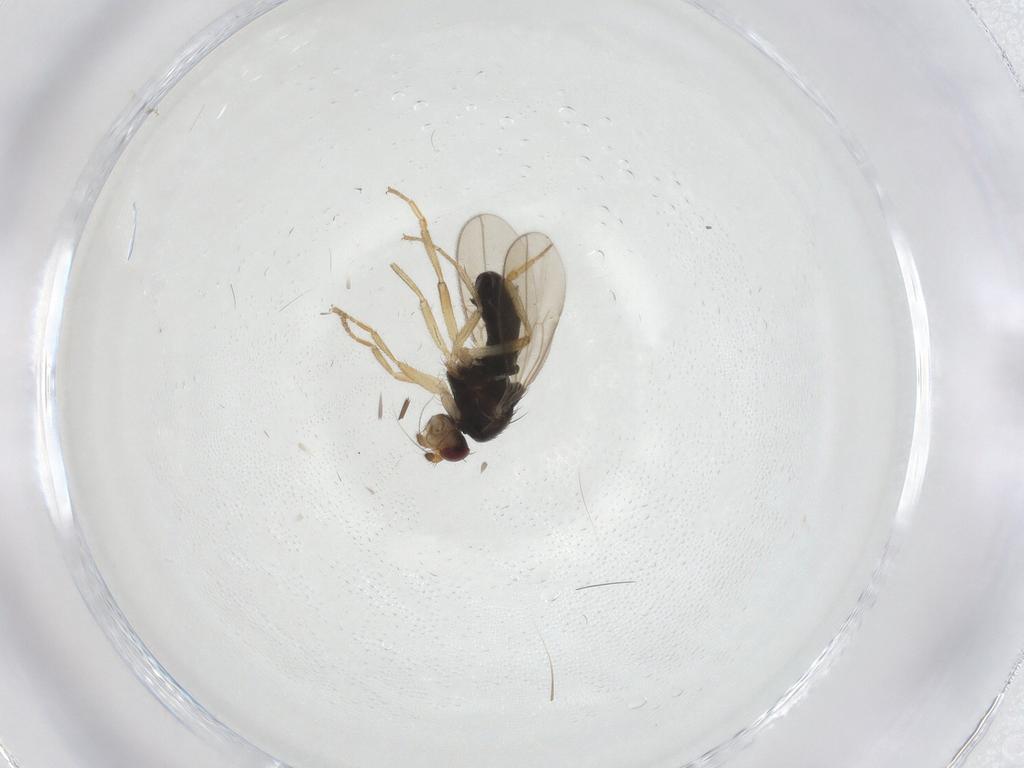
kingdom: Animalia
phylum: Arthropoda
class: Insecta
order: Diptera
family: Sphaeroceridae
